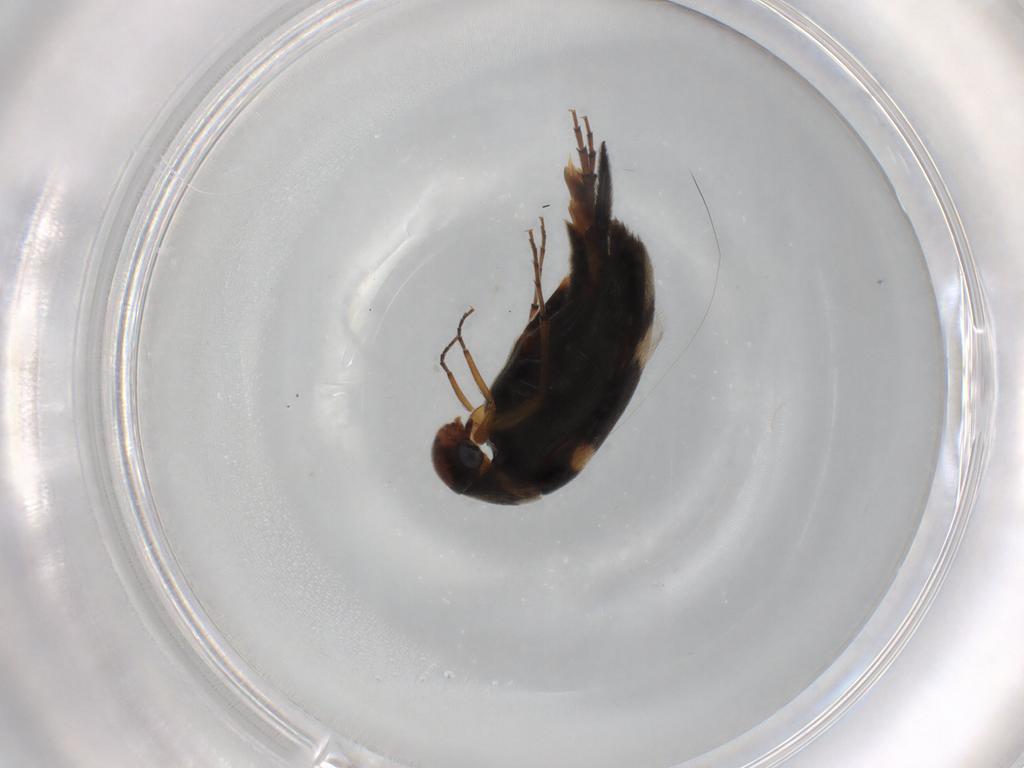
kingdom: Animalia
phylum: Arthropoda
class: Insecta
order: Coleoptera
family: Mordellidae
